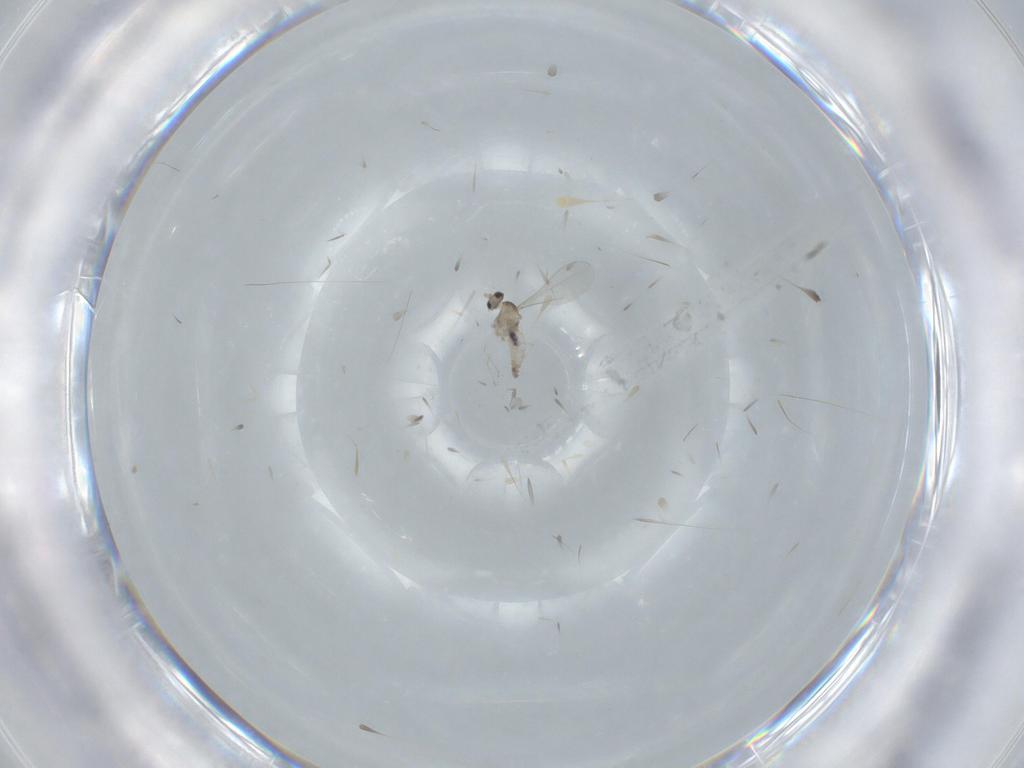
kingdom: Animalia
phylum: Arthropoda
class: Insecta
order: Diptera
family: Cecidomyiidae
